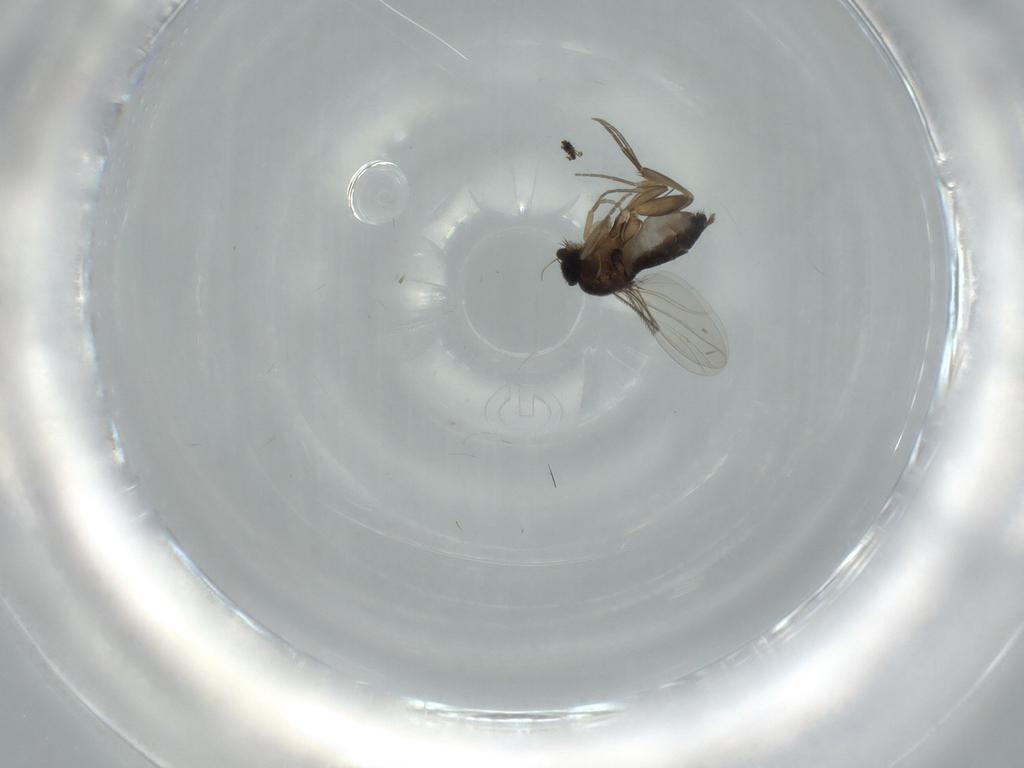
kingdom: Animalia
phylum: Arthropoda
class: Insecta
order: Diptera
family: Phoridae
